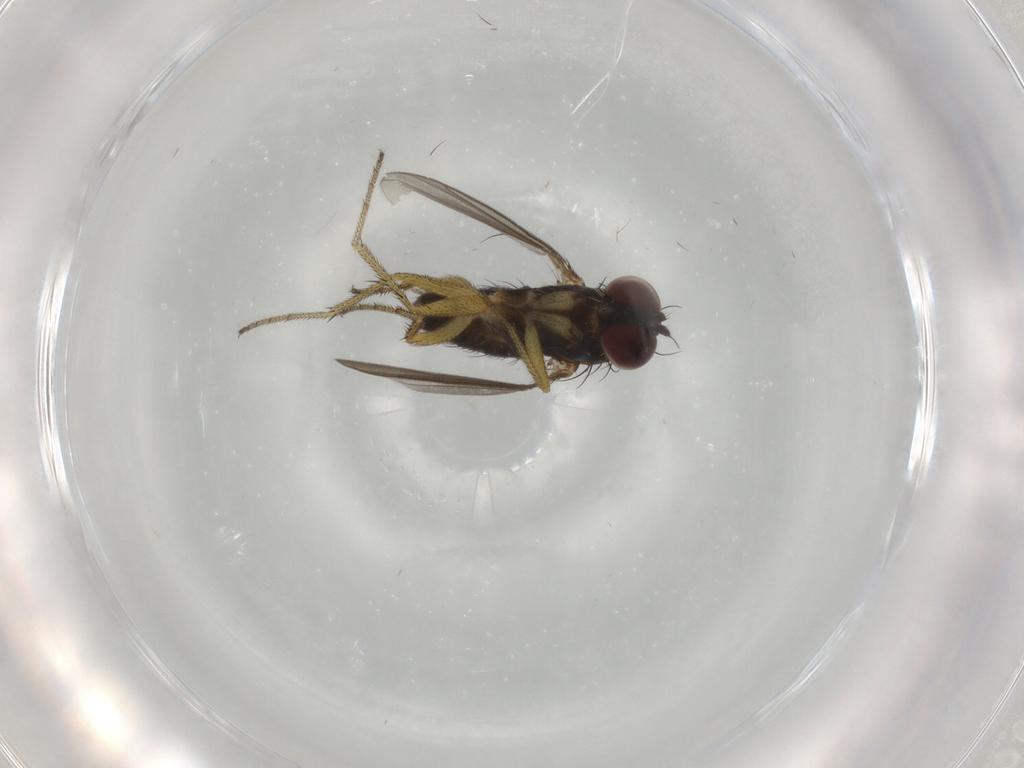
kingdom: Animalia
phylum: Arthropoda
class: Insecta
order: Diptera
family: Dolichopodidae
